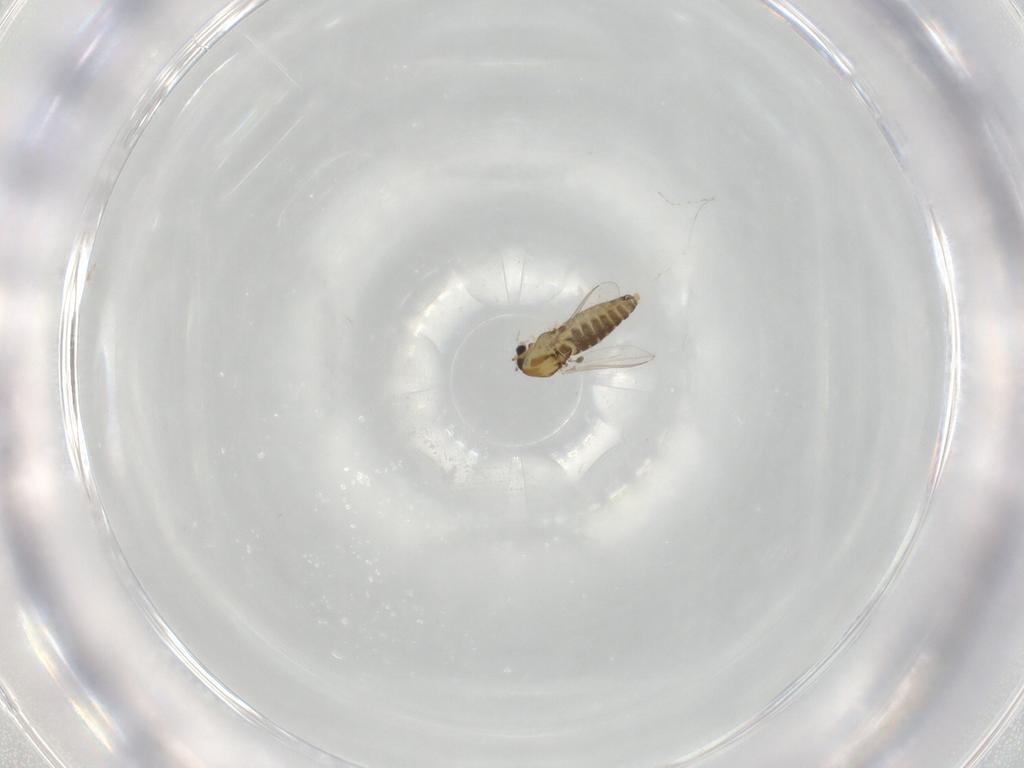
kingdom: Animalia
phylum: Arthropoda
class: Insecta
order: Diptera
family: Chironomidae
